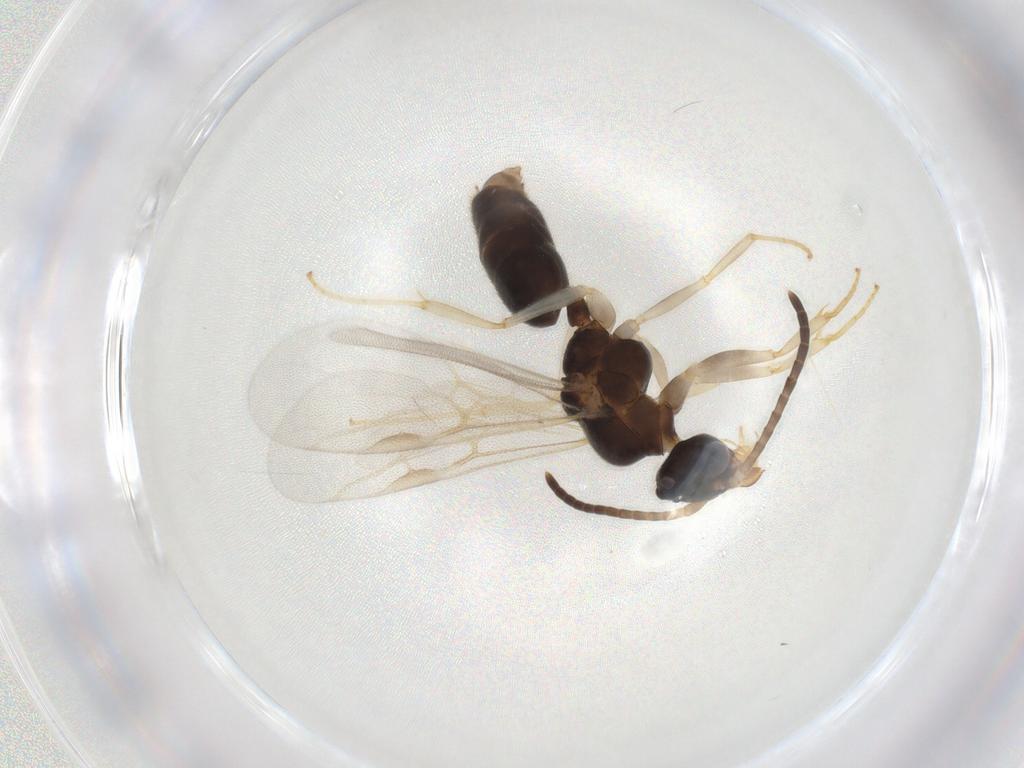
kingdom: Animalia
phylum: Arthropoda
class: Insecta
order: Hymenoptera
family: Braconidae
